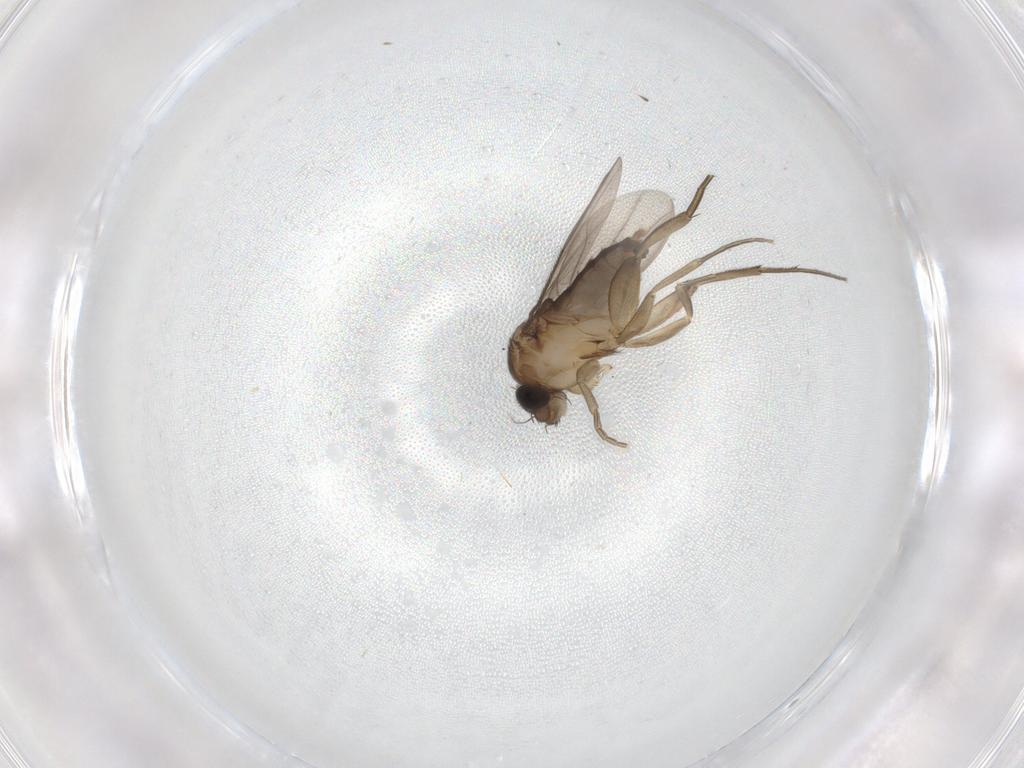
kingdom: Animalia
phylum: Arthropoda
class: Insecta
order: Diptera
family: Phoridae
